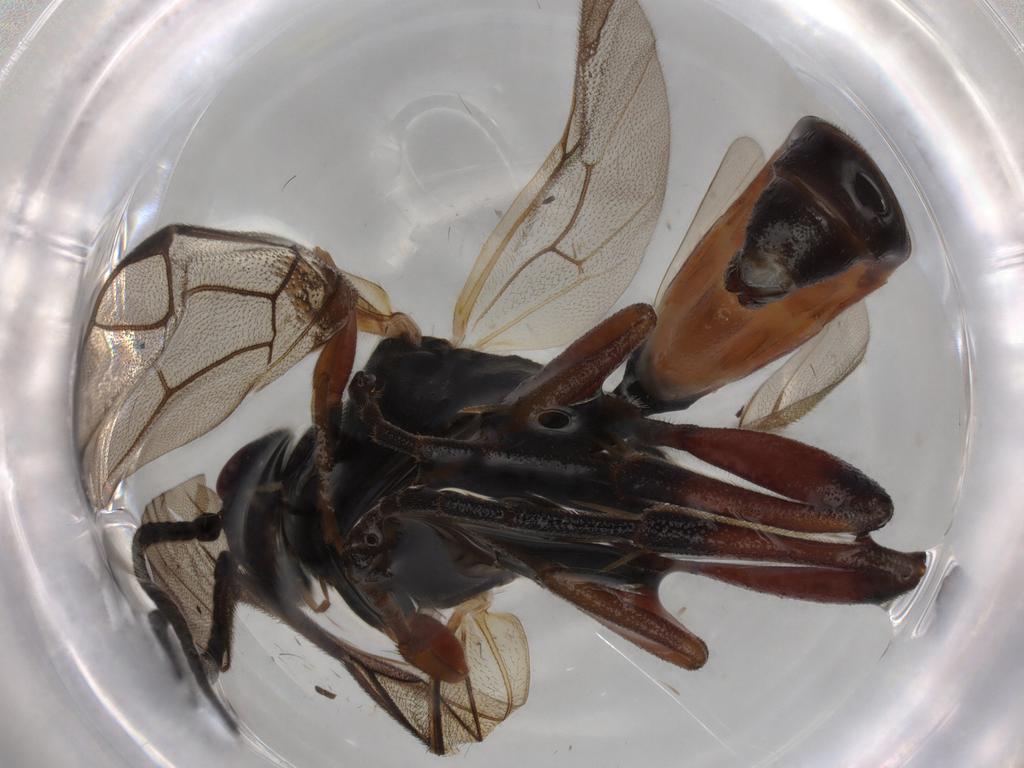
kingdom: Animalia
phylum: Arthropoda
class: Insecta
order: Hymenoptera
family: Ichneumonidae
